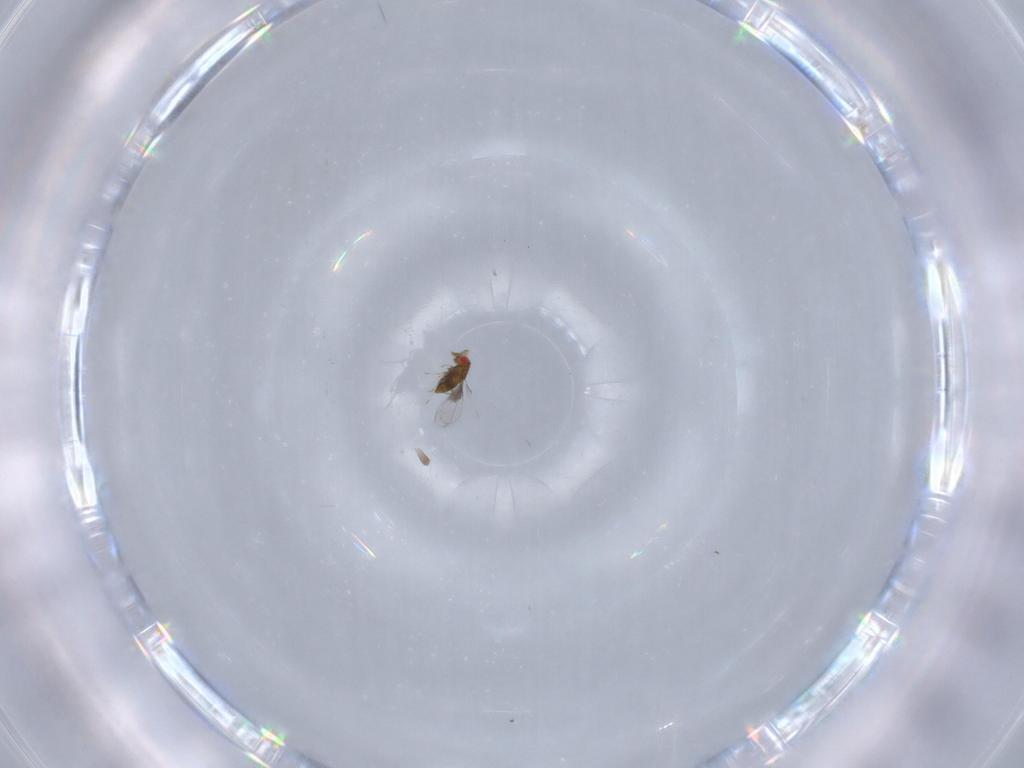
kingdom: Animalia
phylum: Arthropoda
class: Insecta
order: Hymenoptera
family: Trichogrammatidae
